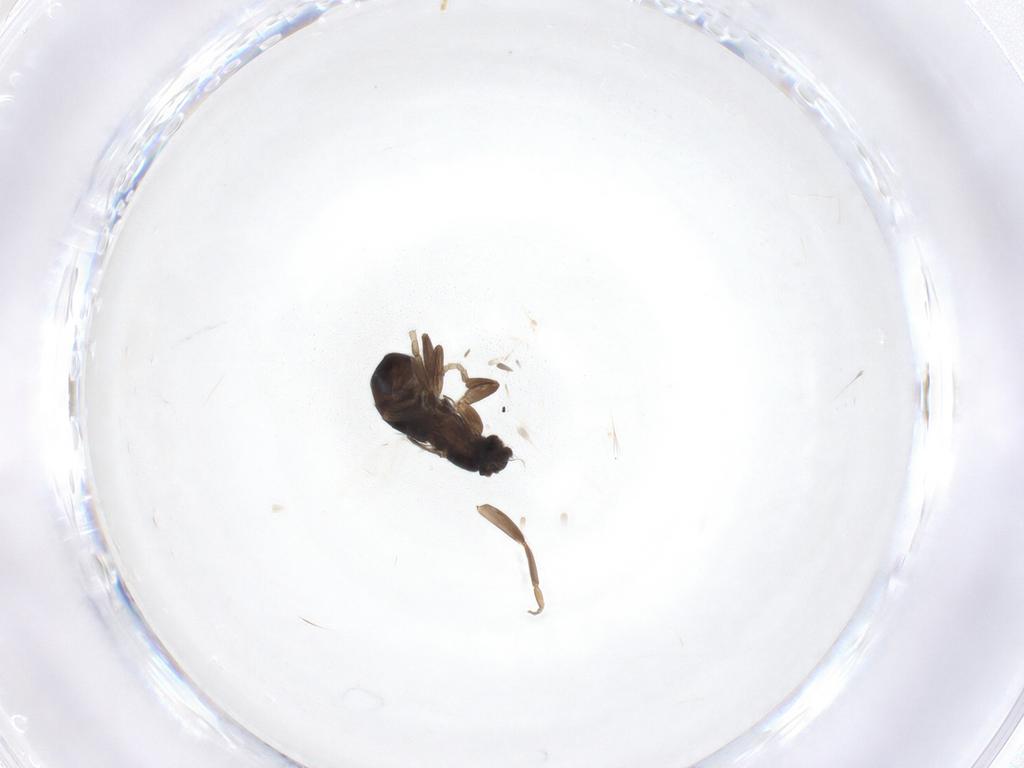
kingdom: Animalia
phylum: Arthropoda
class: Insecta
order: Diptera
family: Phoridae
